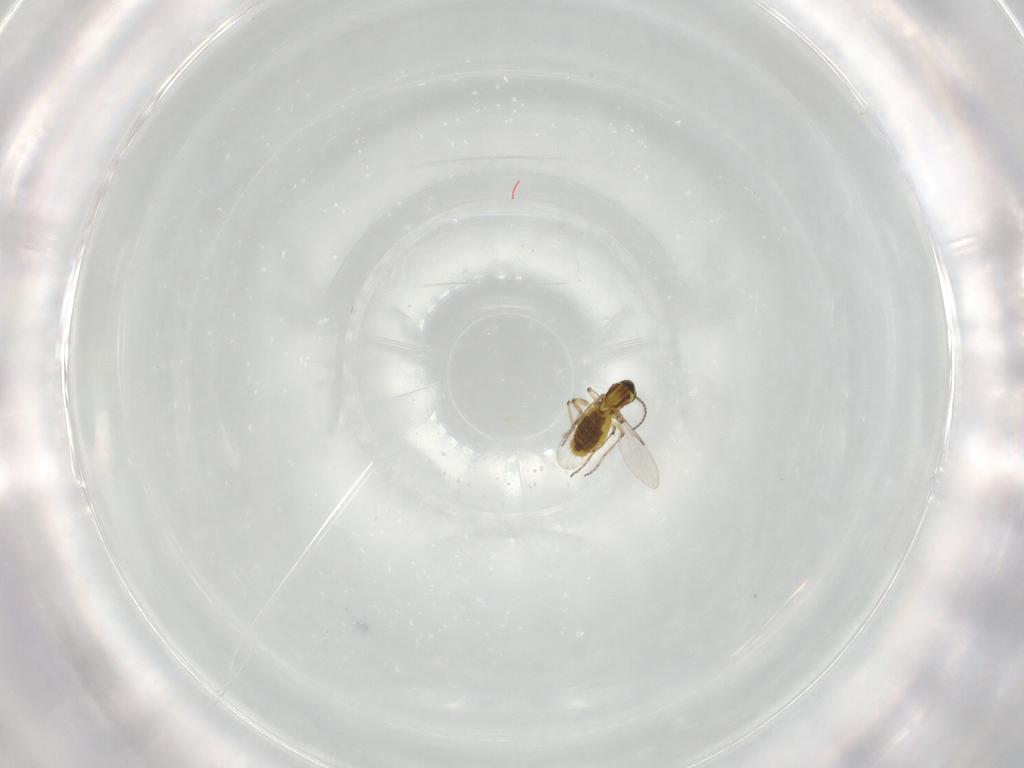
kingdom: Animalia
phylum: Arthropoda
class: Insecta
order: Diptera
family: Ceratopogonidae
